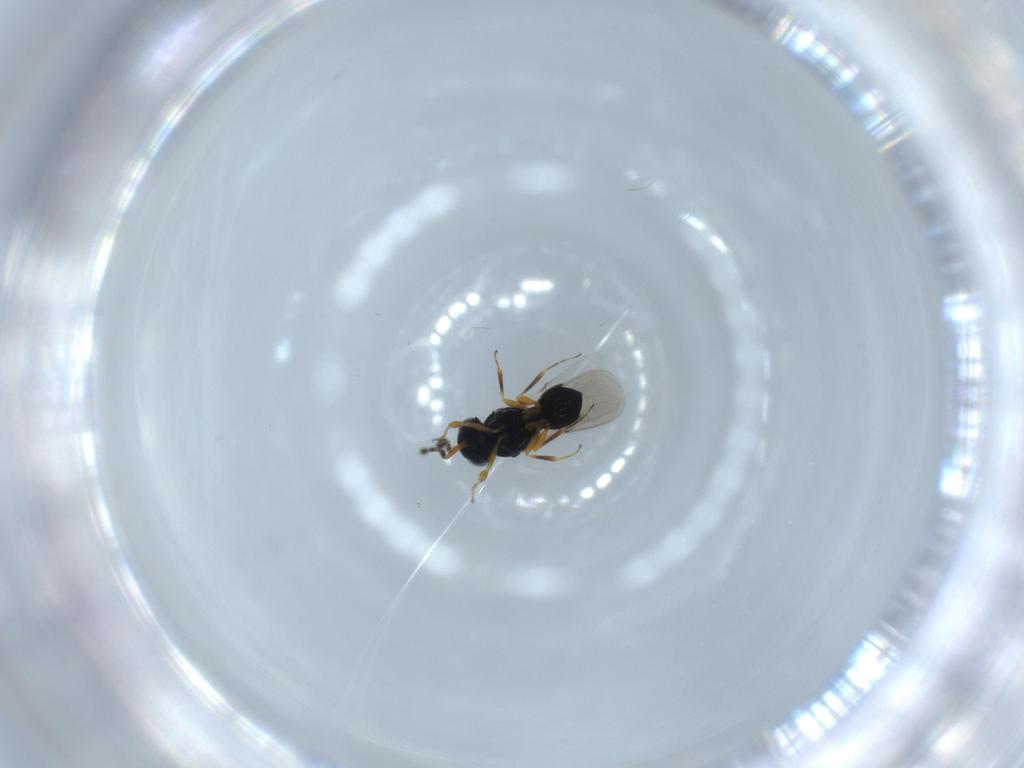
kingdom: Animalia
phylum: Arthropoda
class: Insecta
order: Hymenoptera
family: Scelionidae
